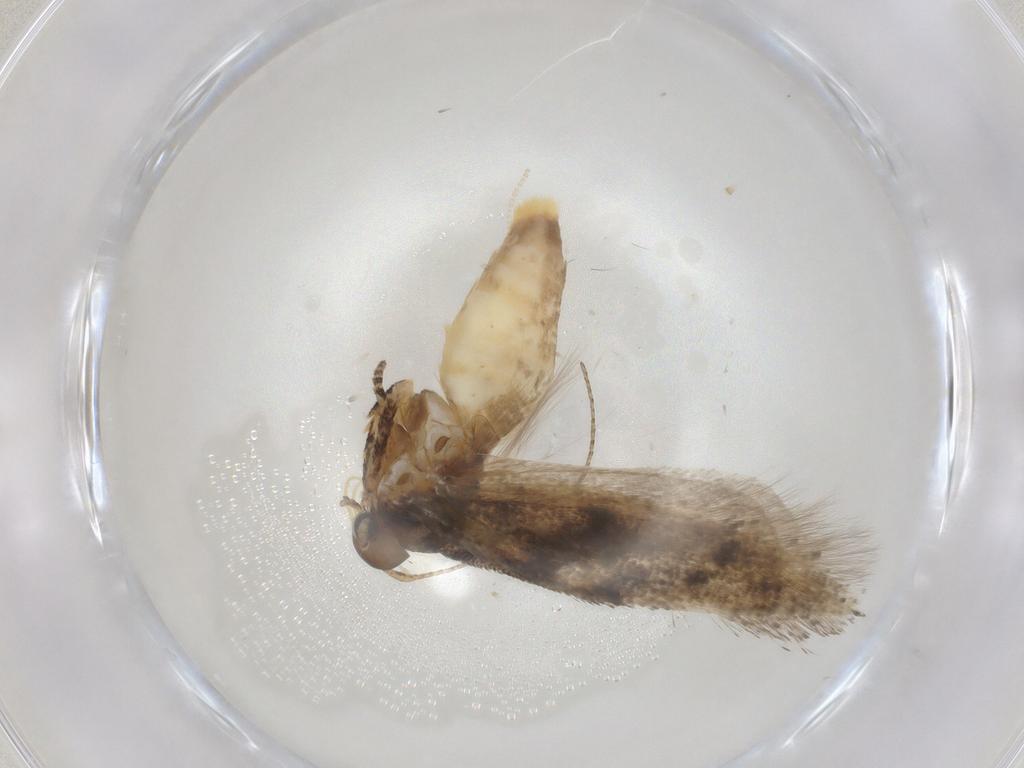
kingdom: Animalia
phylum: Arthropoda
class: Insecta
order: Lepidoptera
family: Gelechiidae
